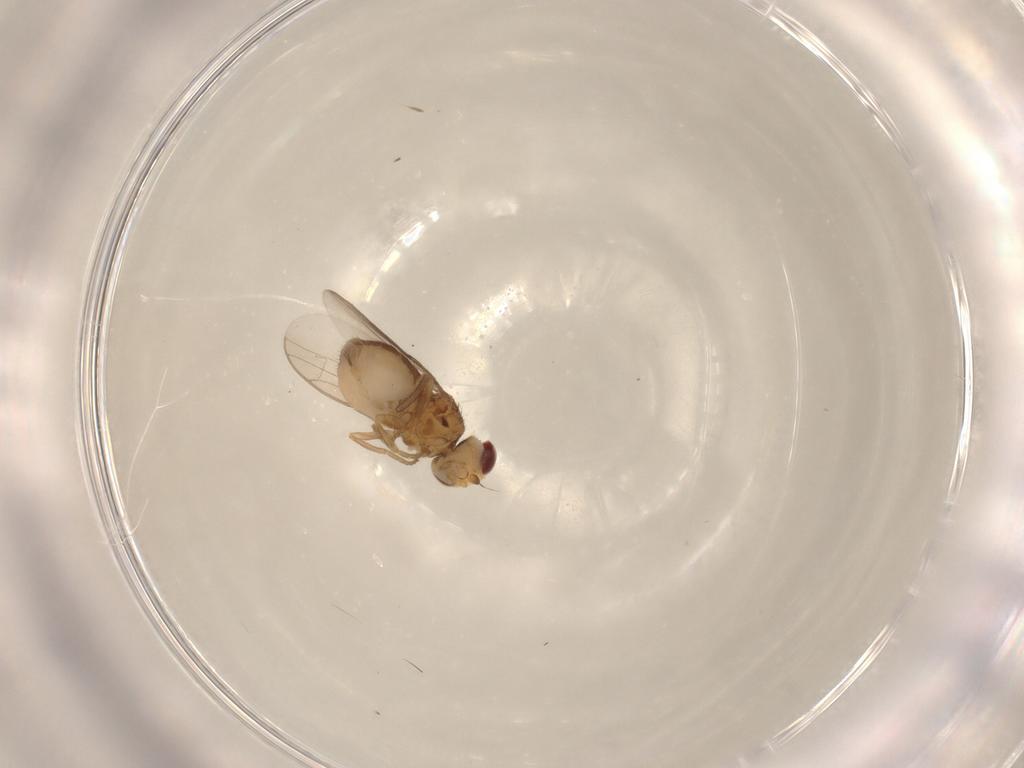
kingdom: Animalia
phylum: Arthropoda
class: Insecta
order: Diptera
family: Chloropidae
